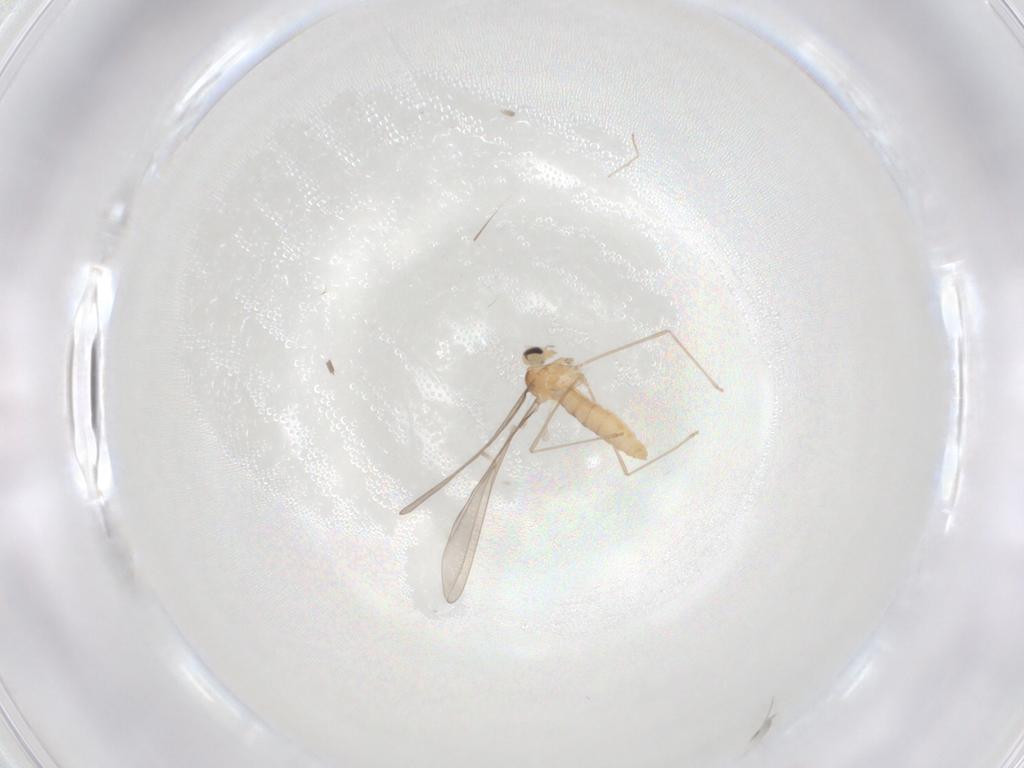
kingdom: Animalia
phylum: Arthropoda
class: Insecta
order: Diptera
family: Cecidomyiidae
